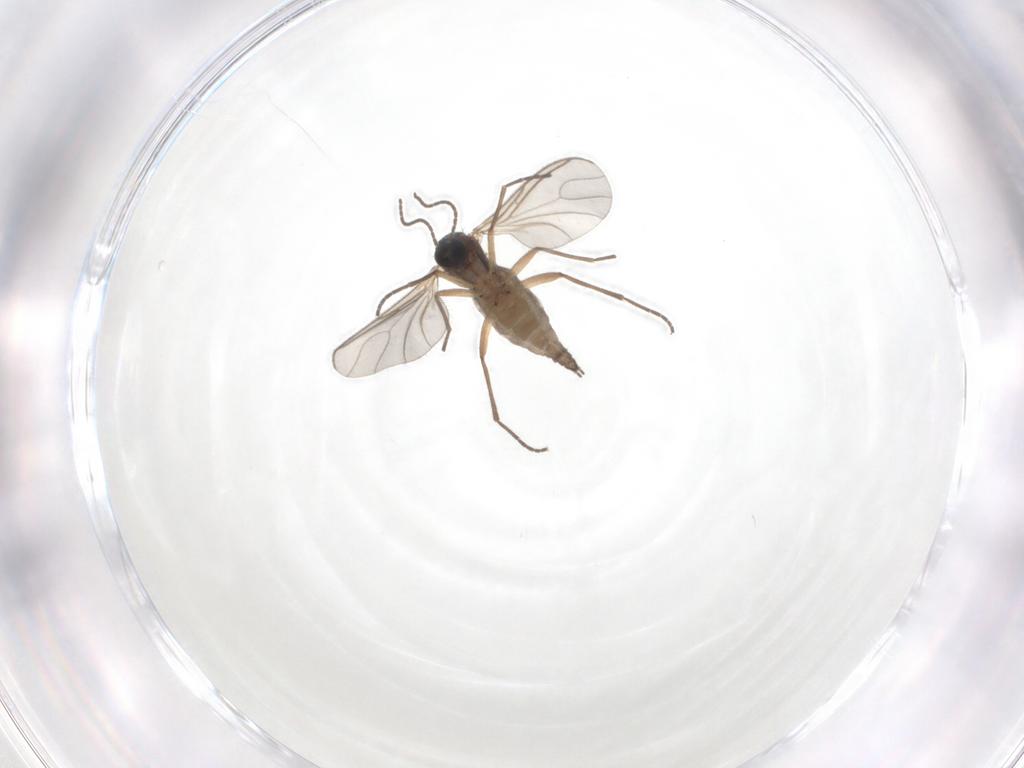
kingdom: Animalia
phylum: Arthropoda
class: Insecta
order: Diptera
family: Sciaridae
